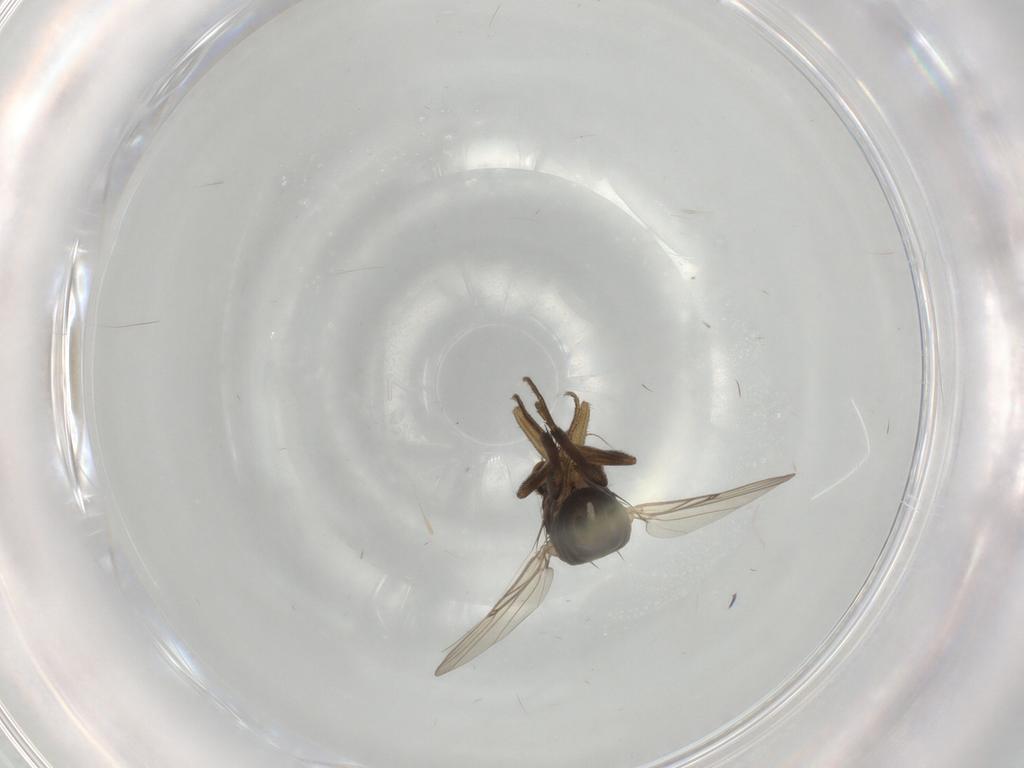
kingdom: Animalia
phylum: Arthropoda
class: Insecta
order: Diptera
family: Phoridae
